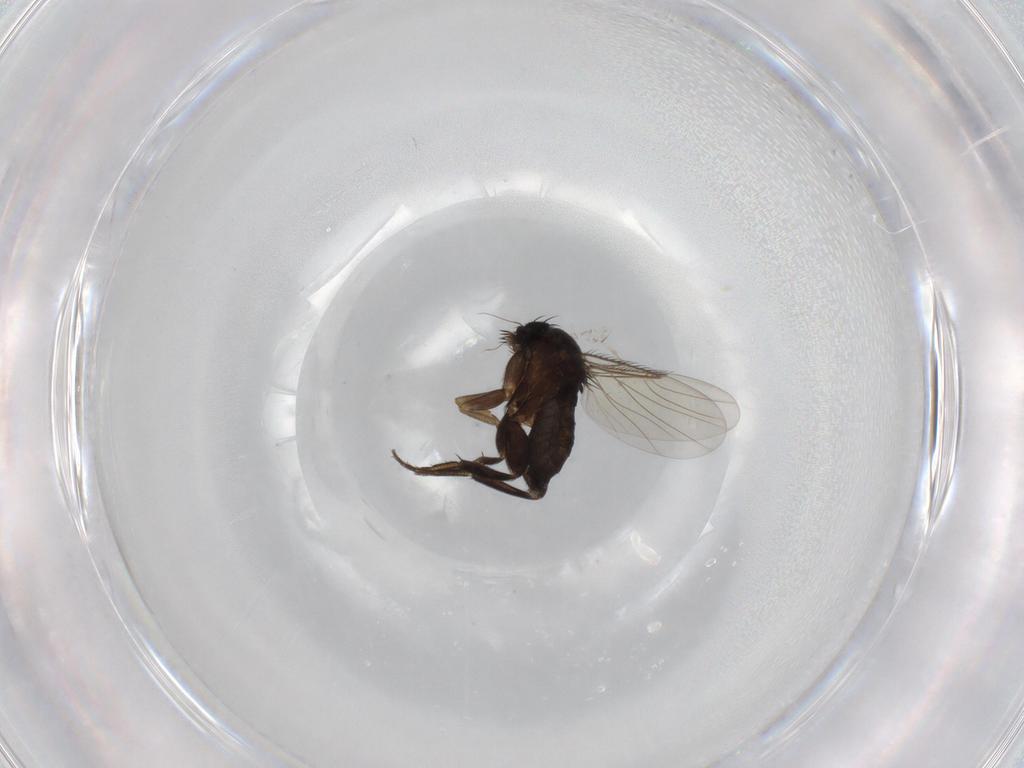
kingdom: Animalia
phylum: Arthropoda
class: Insecta
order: Diptera
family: Phoridae
